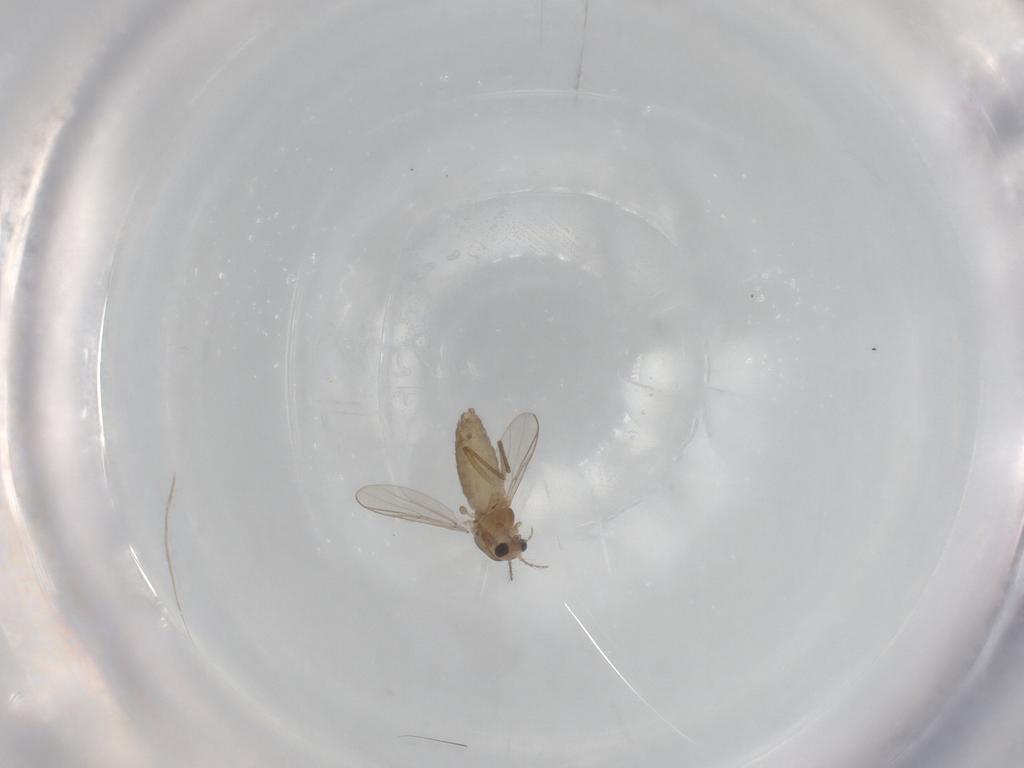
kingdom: Animalia
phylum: Arthropoda
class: Insecta
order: Diptera
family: Chironomidae
